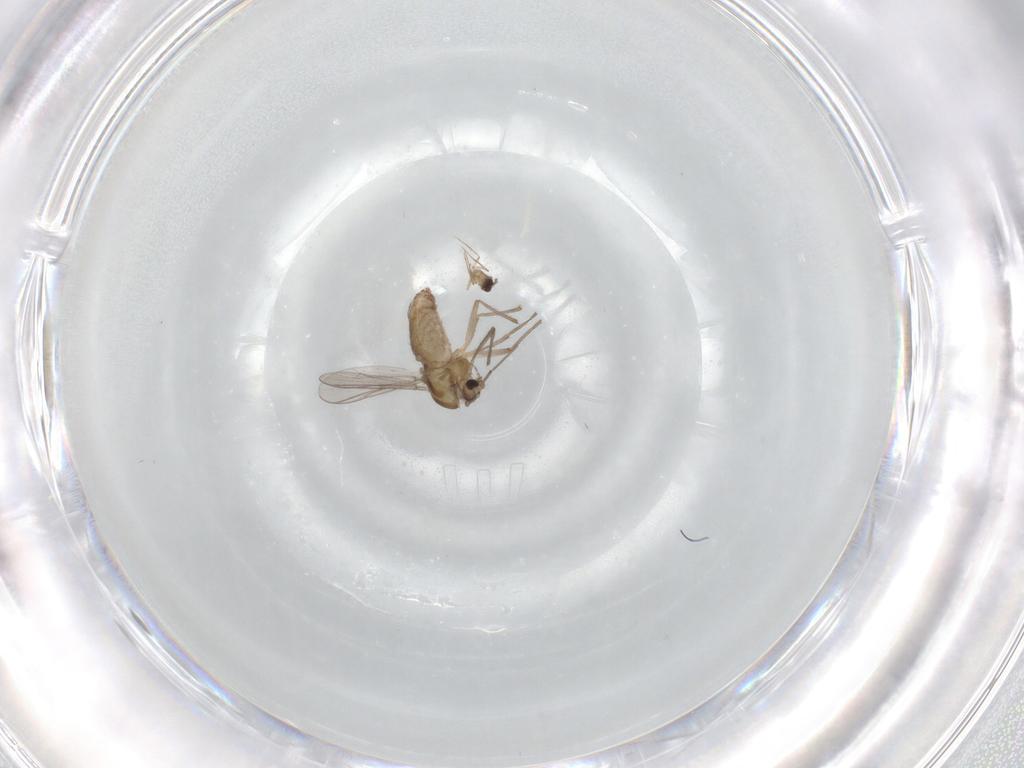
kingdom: Animalia
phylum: Arthropoda
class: Insecta
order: Diptera
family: Chironomidae
